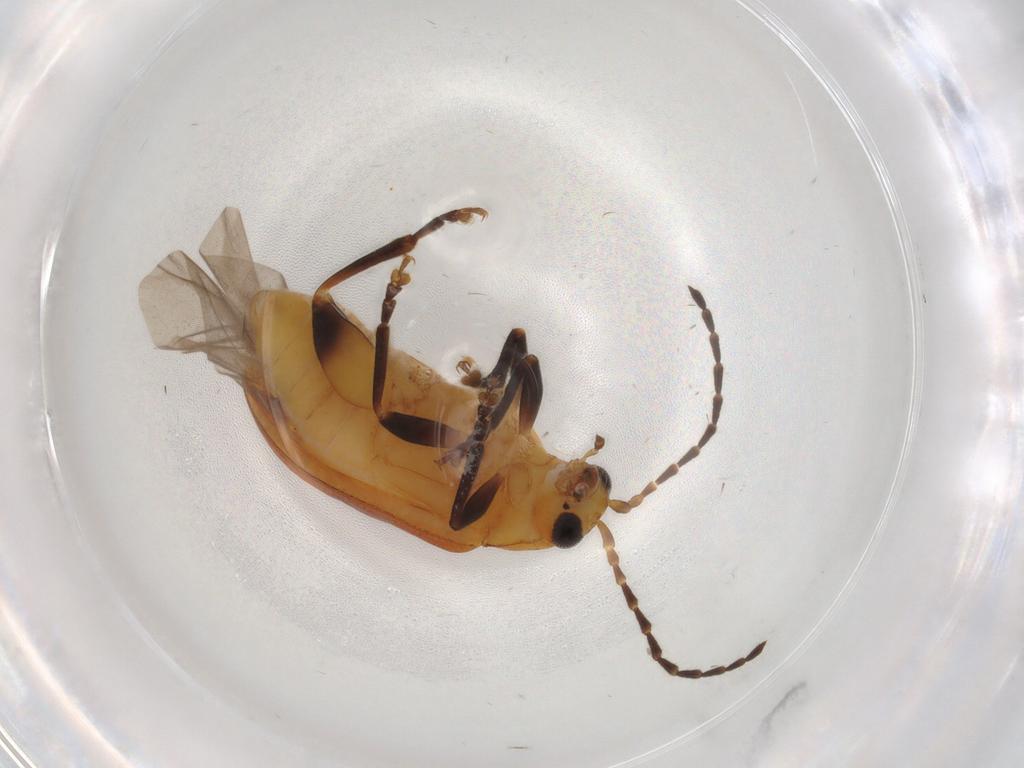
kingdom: Animalia
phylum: Arthropoda
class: Insecta
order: Coleoptera
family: Chrysomelidae
